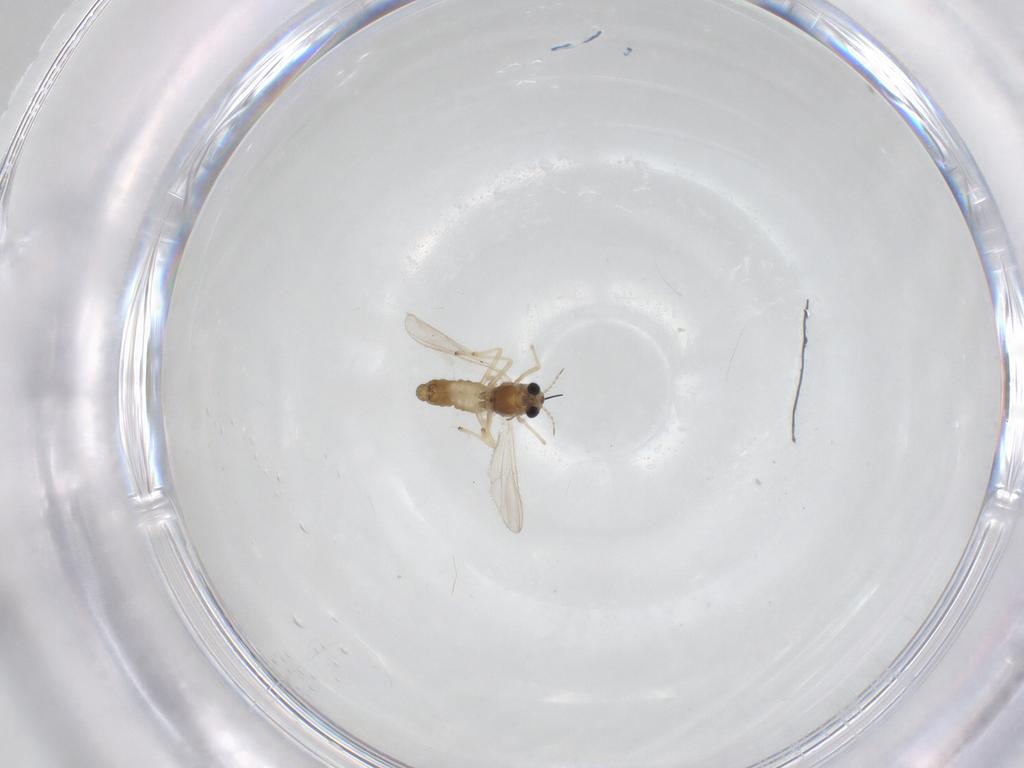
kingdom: Animalia
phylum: Arthropoda
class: Insecta
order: Diptera
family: Chironomidae
